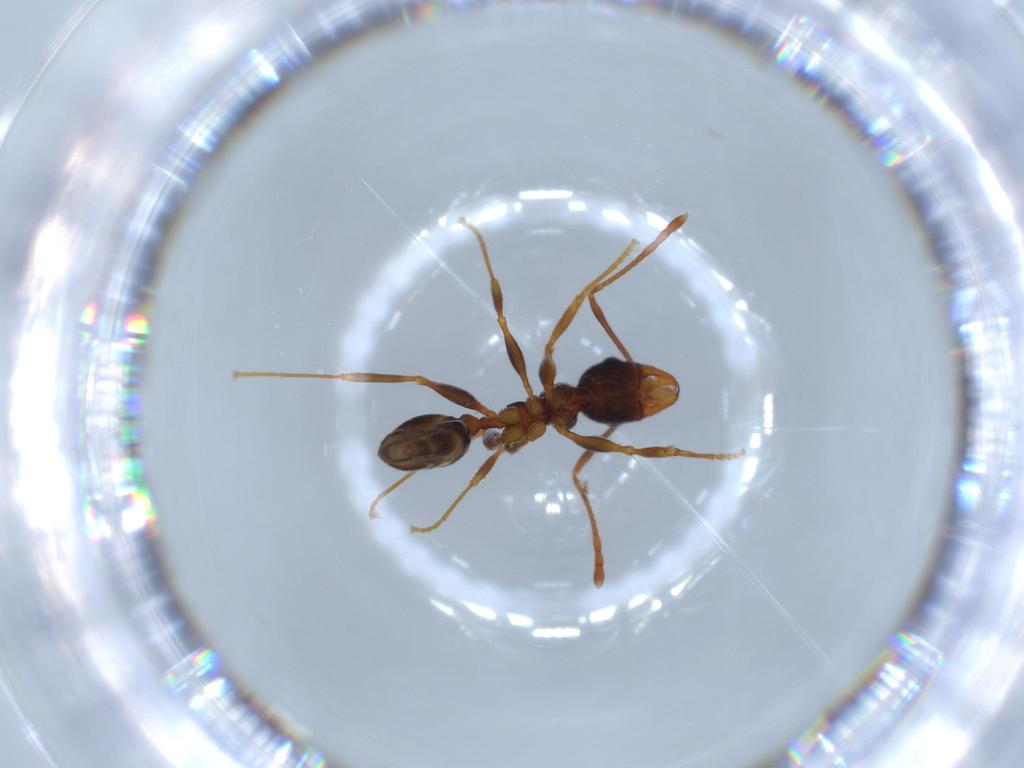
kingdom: Animalia
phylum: Arthropoda
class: Insecta
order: Hymenoptera
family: Formicidae
